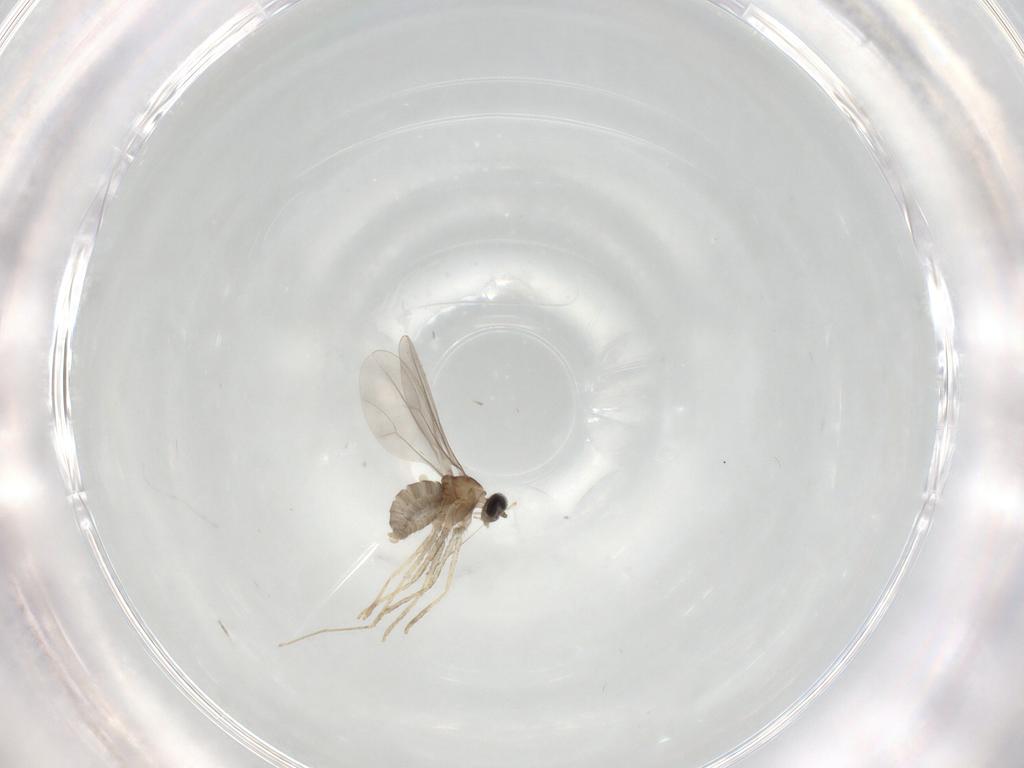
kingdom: Animalia
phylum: Arthropoda
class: Insecta
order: Diptera
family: Cecidomyiidae
